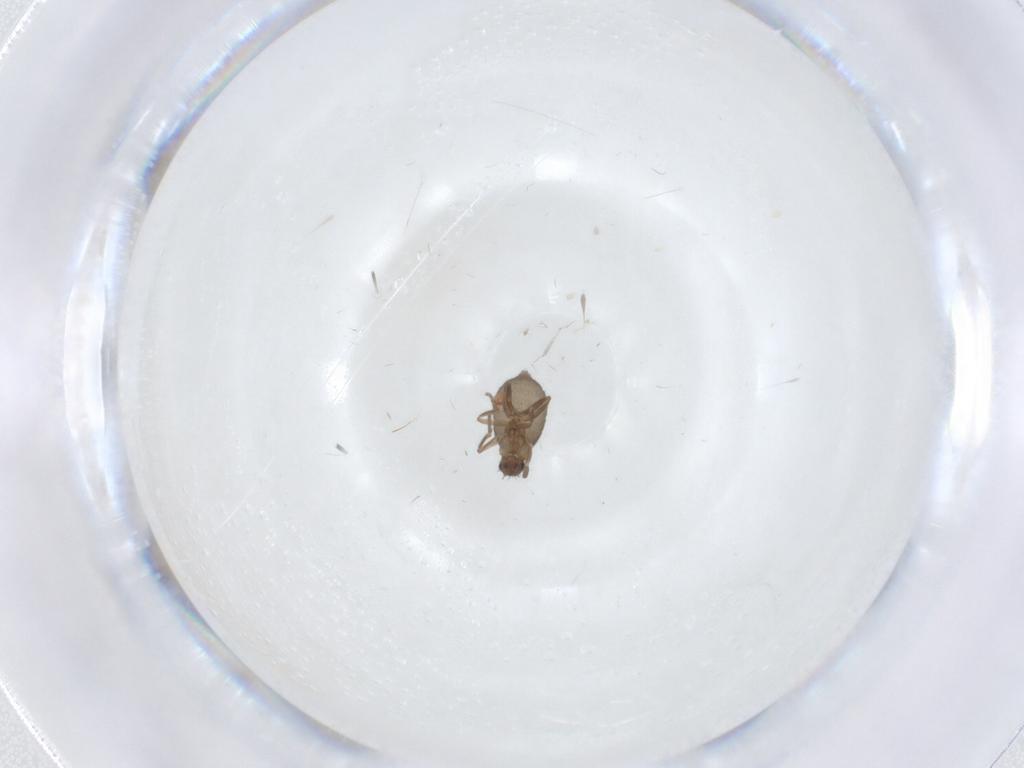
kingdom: Animalia
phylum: Arthropoda
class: Insecta
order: Diptera
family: Phoridae
